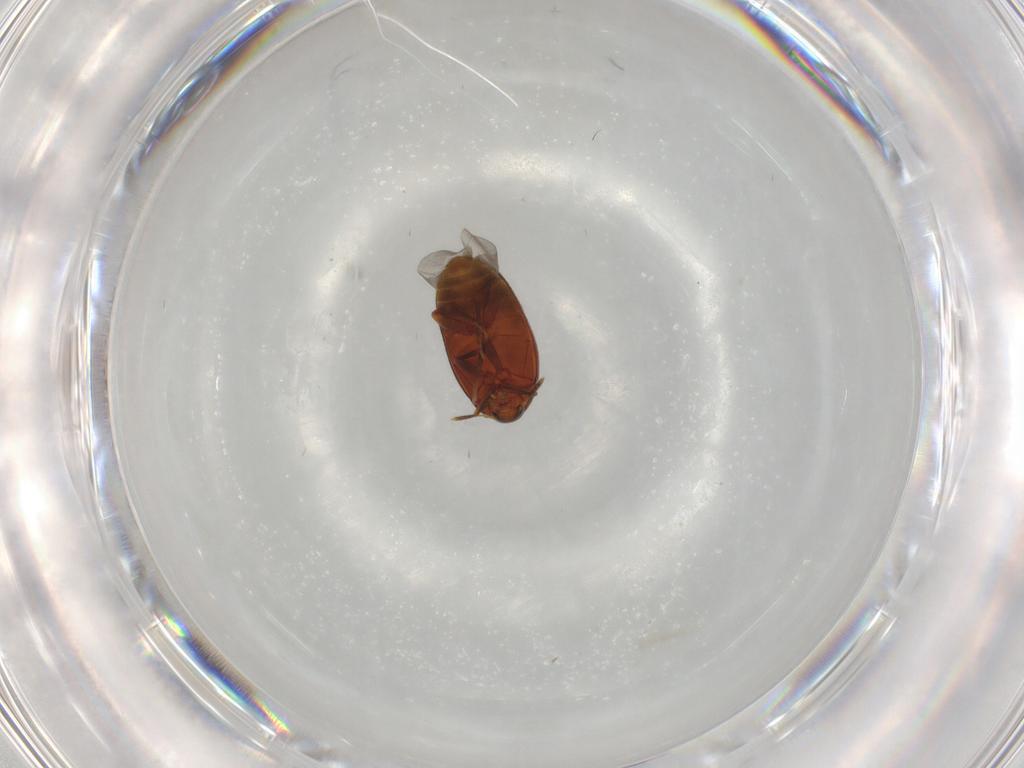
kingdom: Animalia
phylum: Arthropoda
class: Insecta
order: Coleoptera
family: Melandryidae
